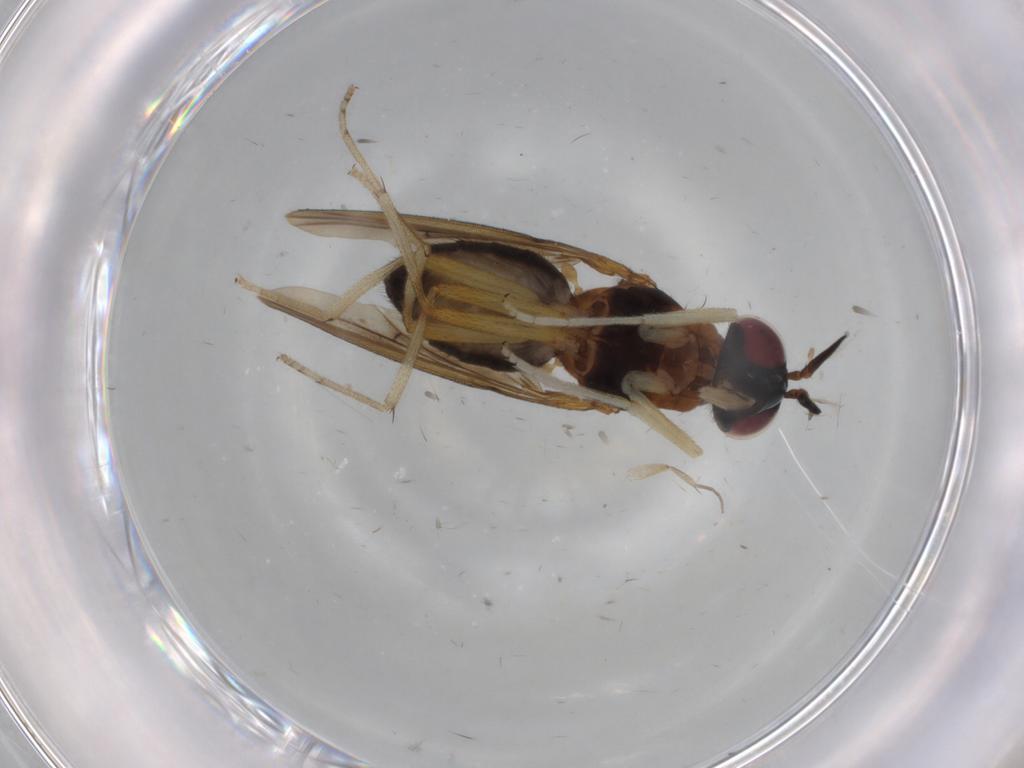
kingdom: Animalia
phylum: Arthropoda
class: Insecta
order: Diptera
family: Lauxaniidae
